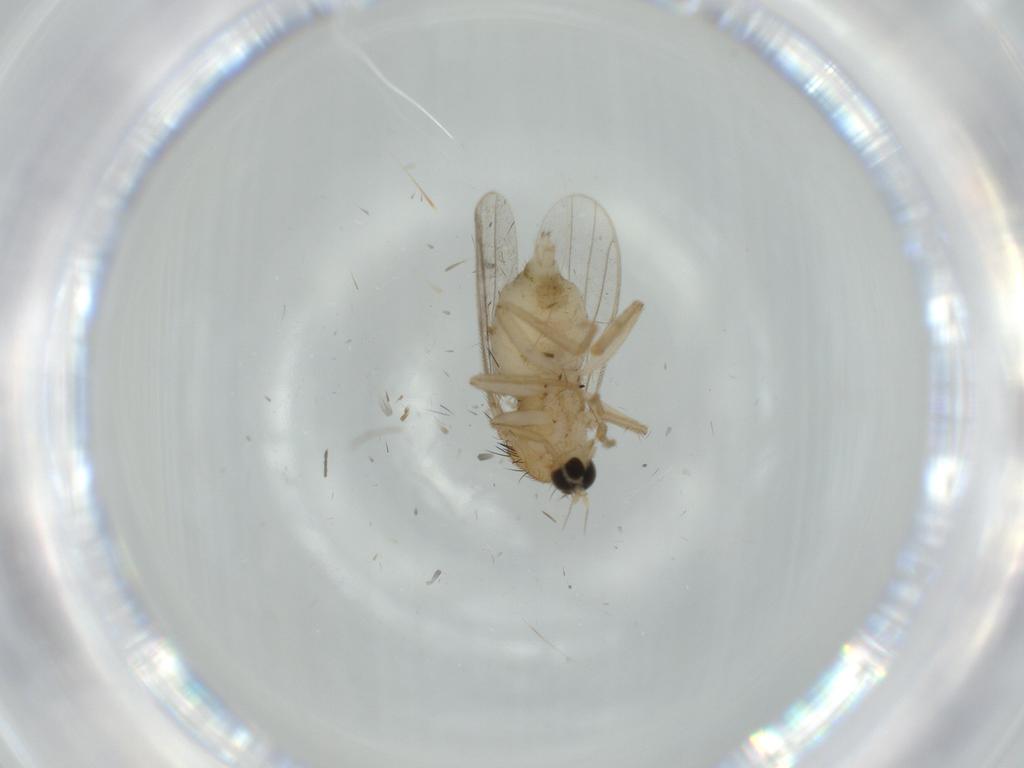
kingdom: Animalia
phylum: Arthropoda
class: Insecta
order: Diptera
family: Hybotidae
